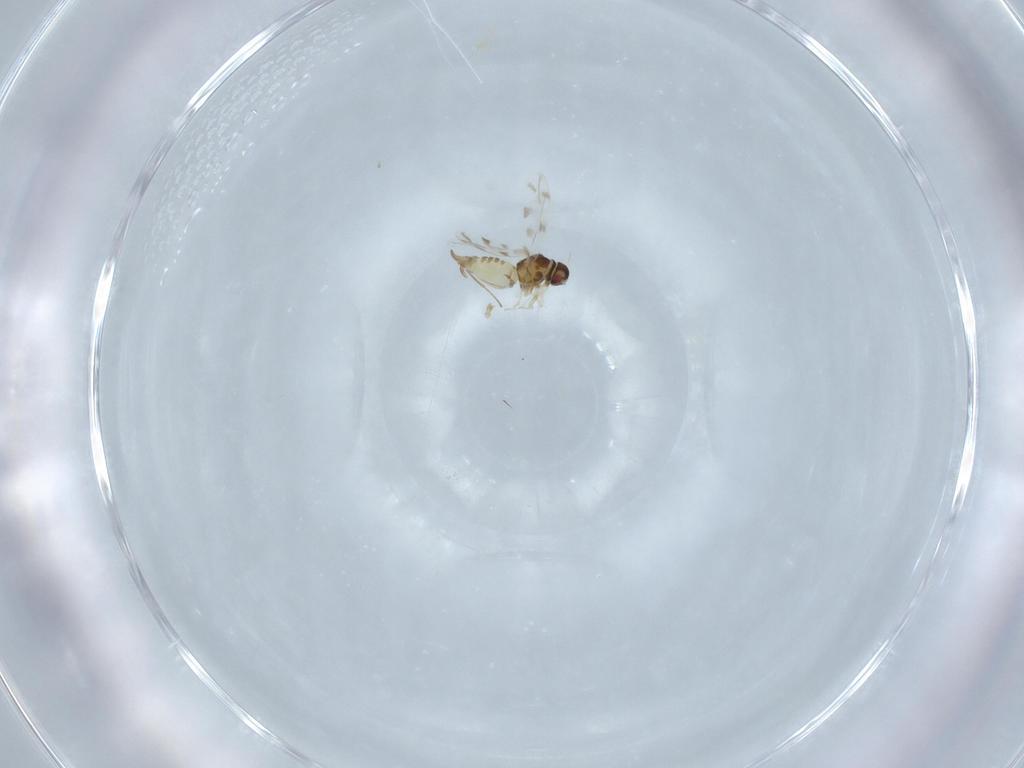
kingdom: Animalia
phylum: Arthropoda
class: Insecta
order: Hemiptera
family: Aleyrodidae
